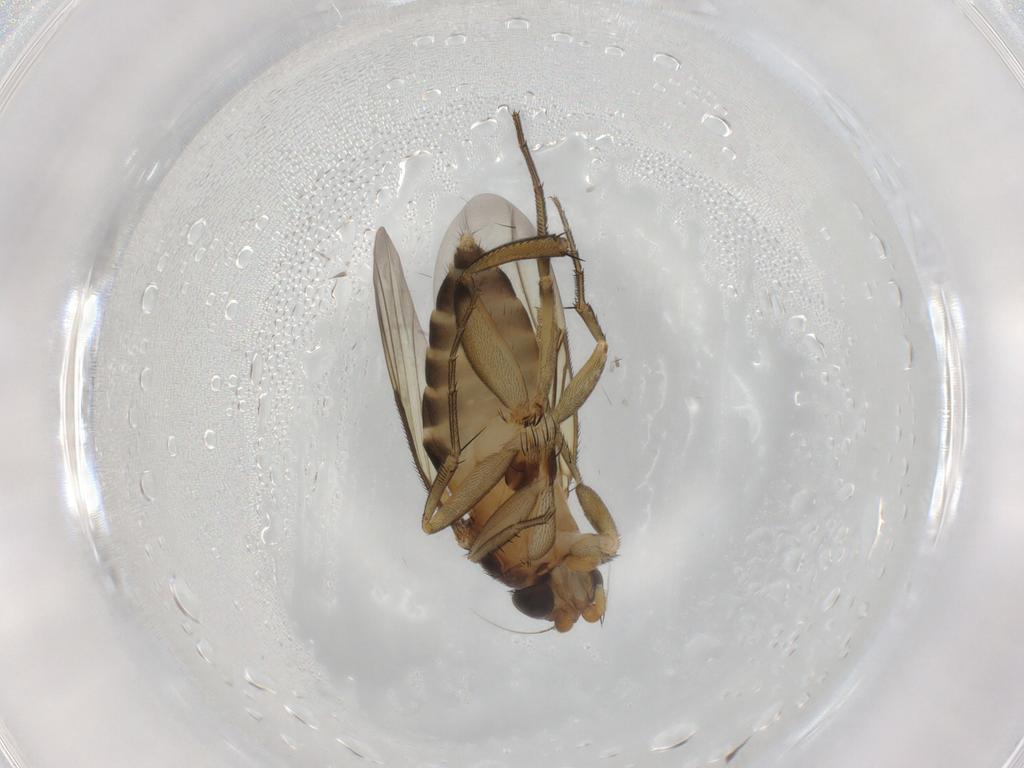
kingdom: Animalia
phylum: Arthropoda
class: Insecta
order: Diptera
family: Phoridae
